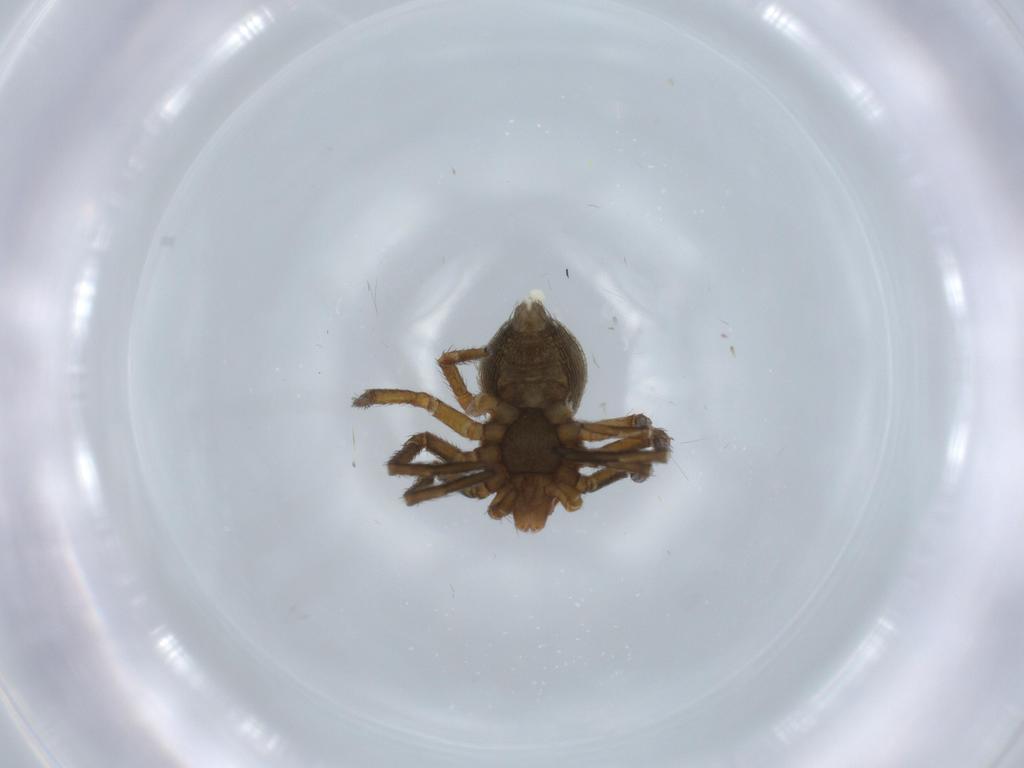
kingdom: Animalia
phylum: Arthropoda
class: Arachnida
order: Araneae
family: Thomisidae
